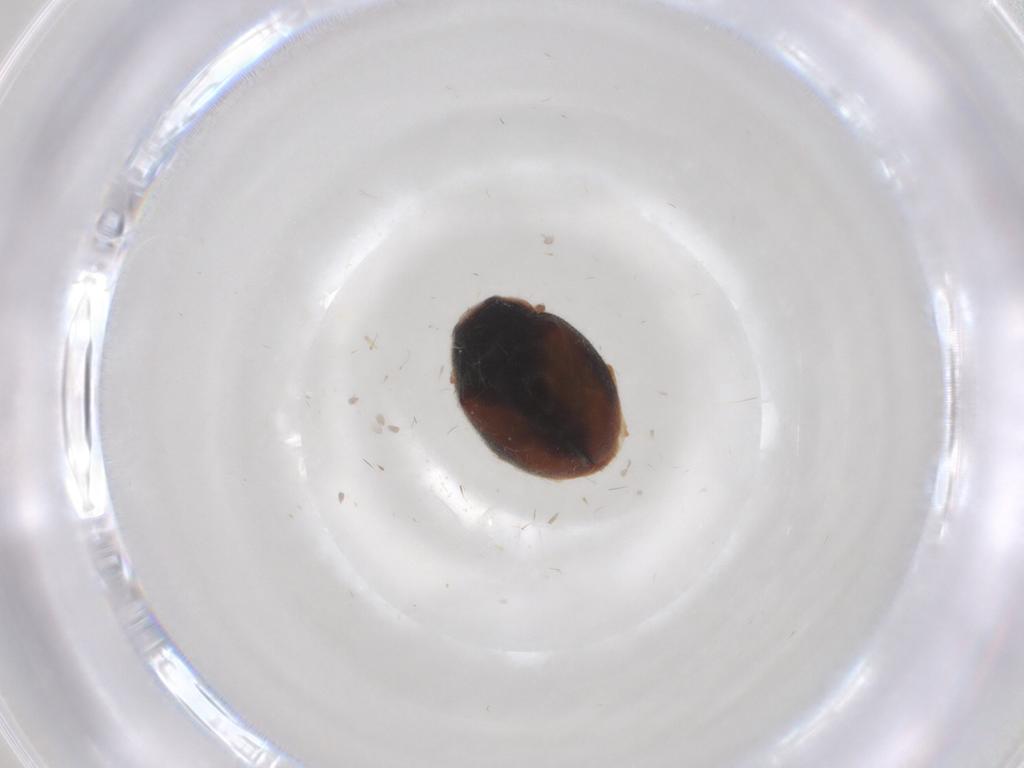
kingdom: Animalia
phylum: Arthropoda
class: Insecta
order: Coleoptera
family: Coccinellidae
